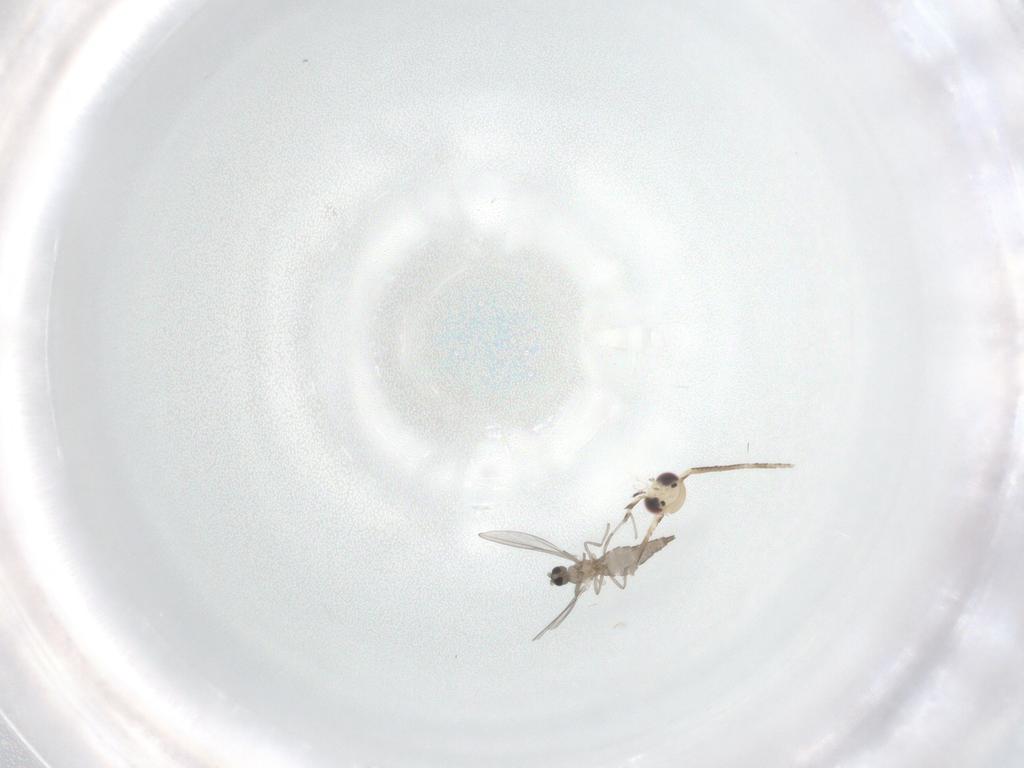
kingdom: Animalia
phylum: Arthropoda
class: Insecta
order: Diptera
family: Cecidomyiidae
